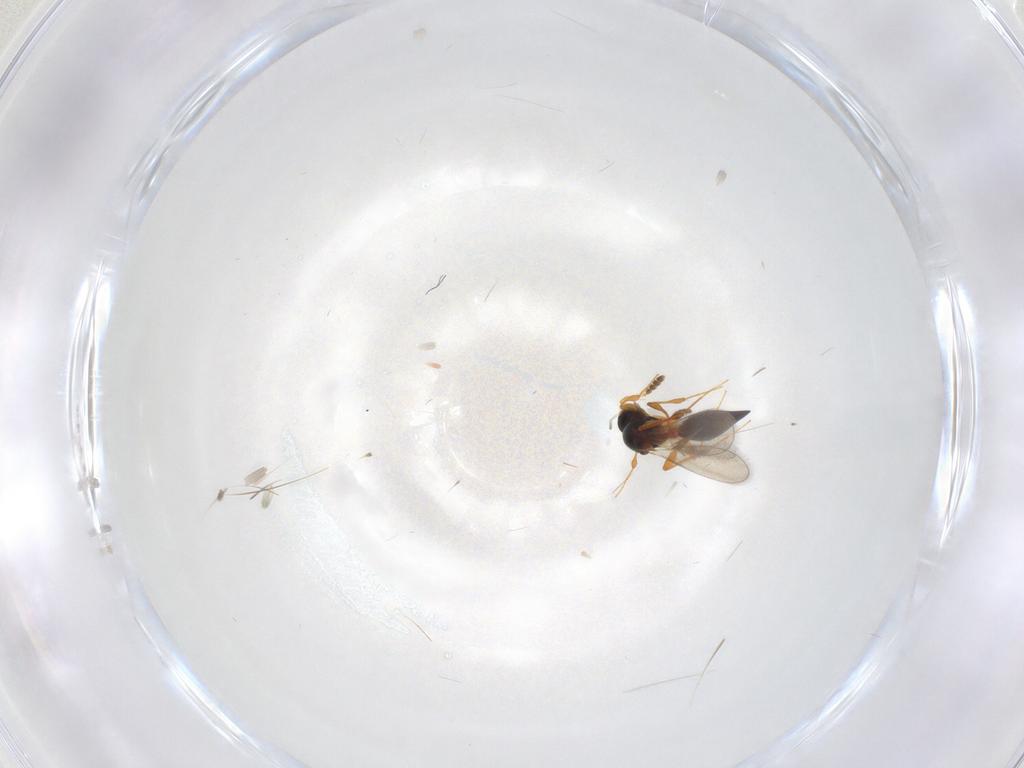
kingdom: Animalia
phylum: Arthropoda
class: Insecta
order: Hymenoptera
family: Platygastridae
